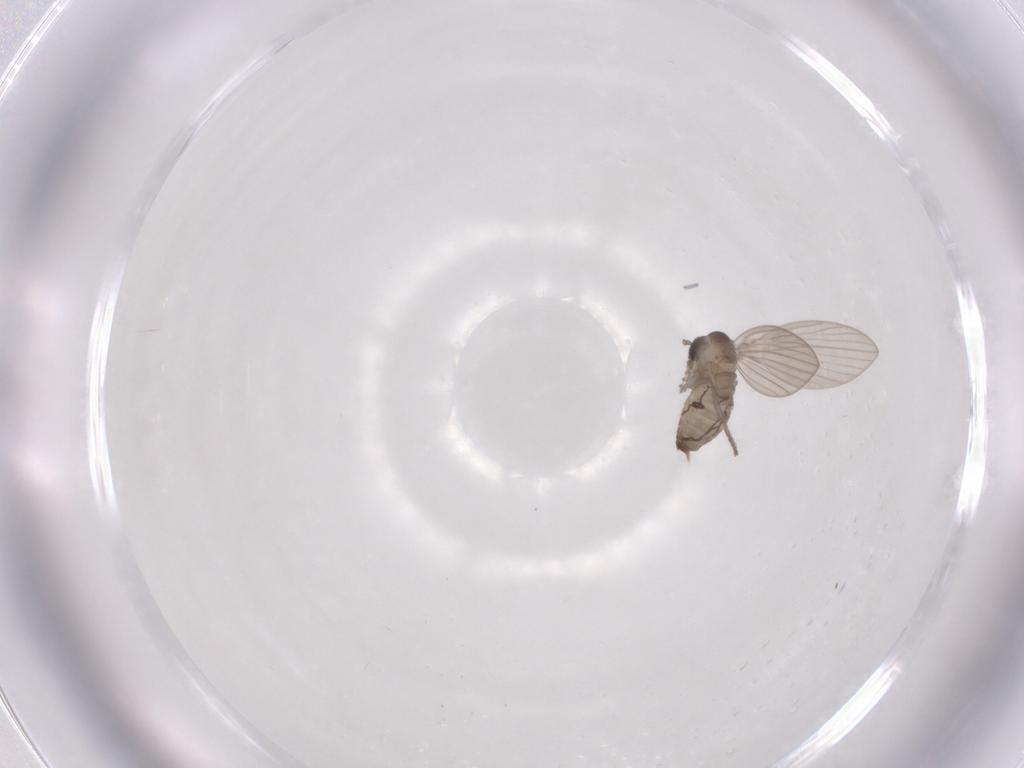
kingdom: Animalia
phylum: Arthropoda
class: Insecta
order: Diptera
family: Psychodidae
